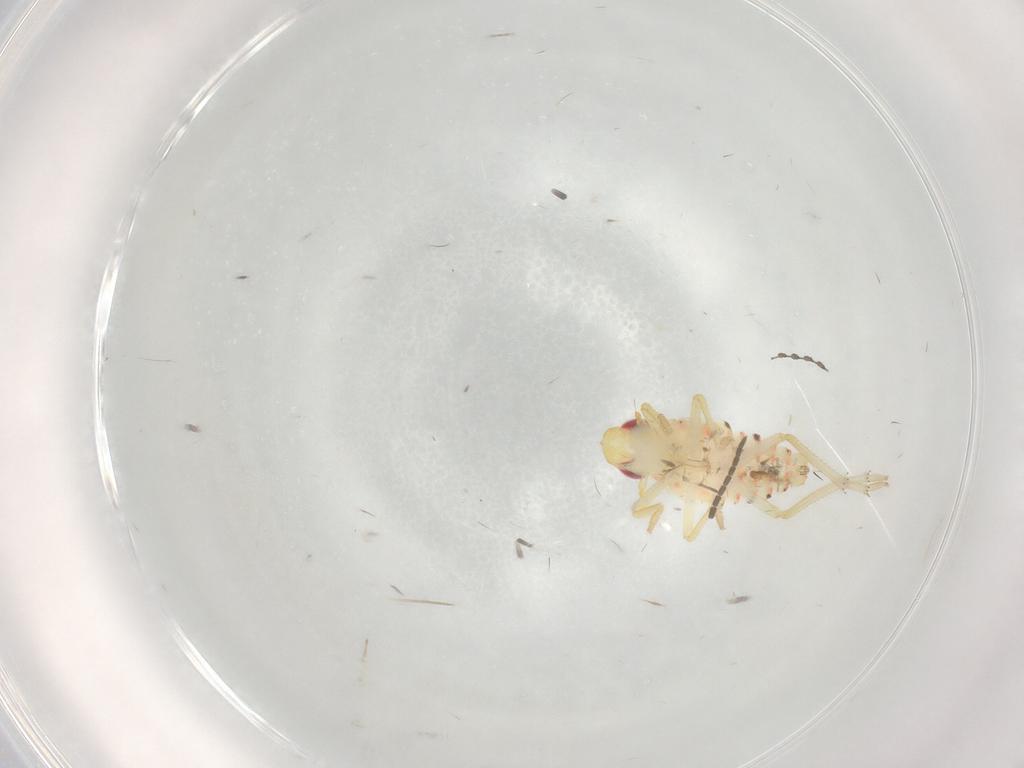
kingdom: Animalia
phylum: Arthropoda
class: Insecta
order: Hemiptera
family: Tropiduchidae
